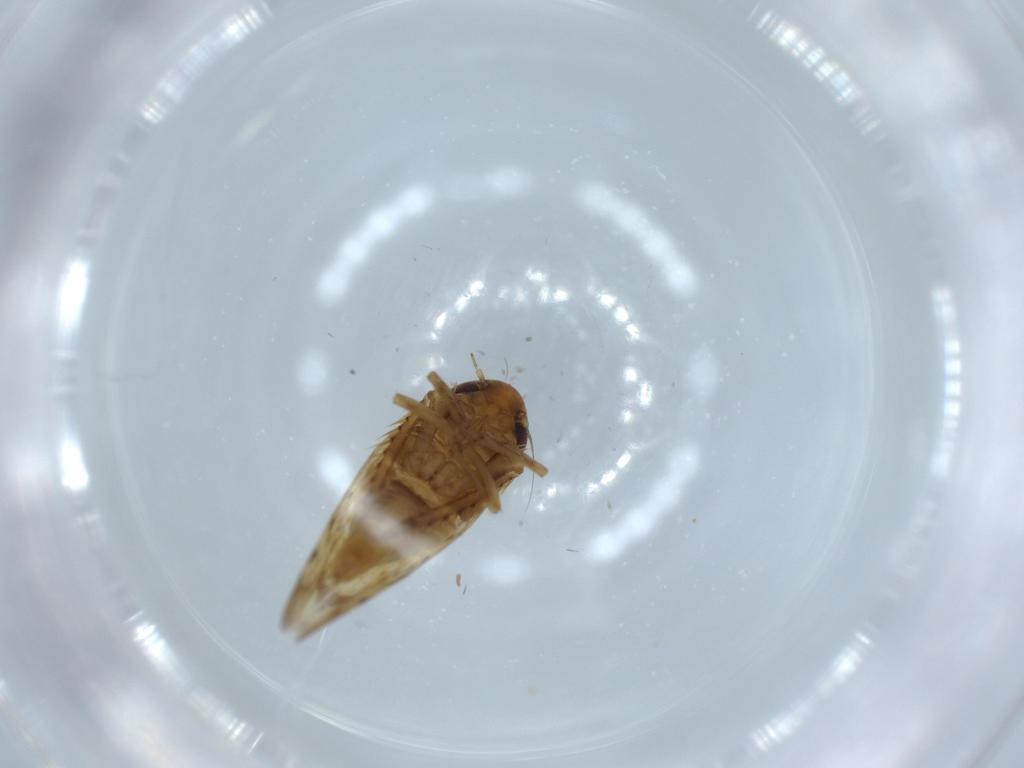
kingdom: Animalia
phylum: Arthropoda
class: Insecta
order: Hemiptera
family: Cicadellidae
